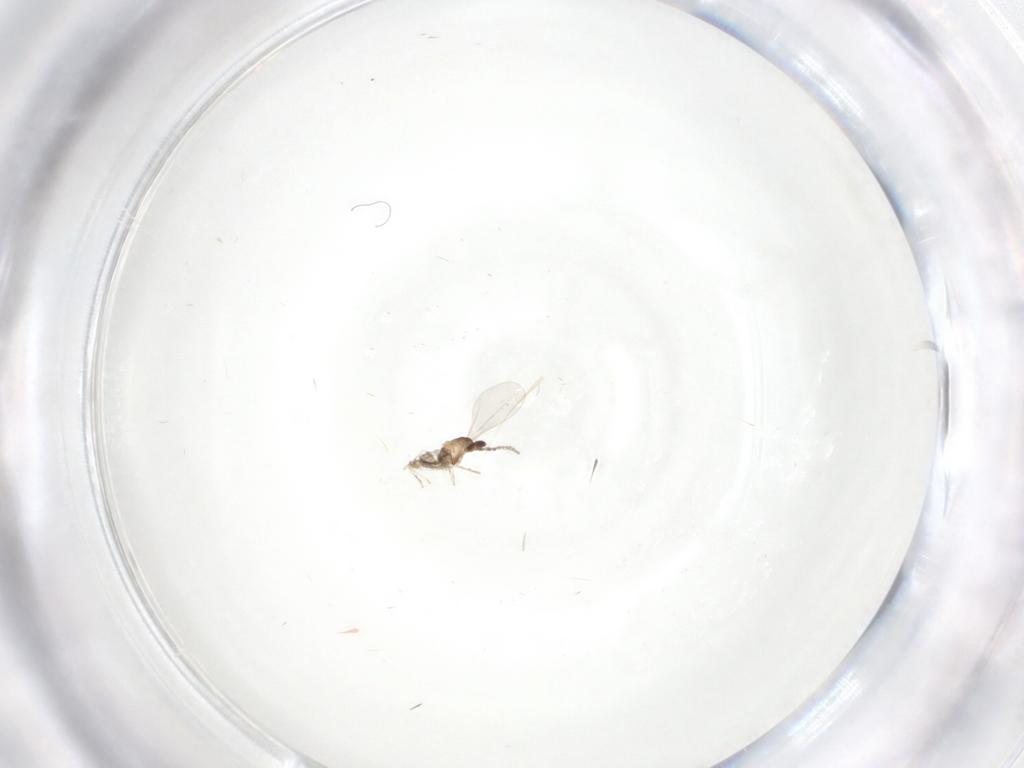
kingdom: Animalia
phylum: Arthropoda
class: Insecta
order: Diptera
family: Cecidomyiidae
